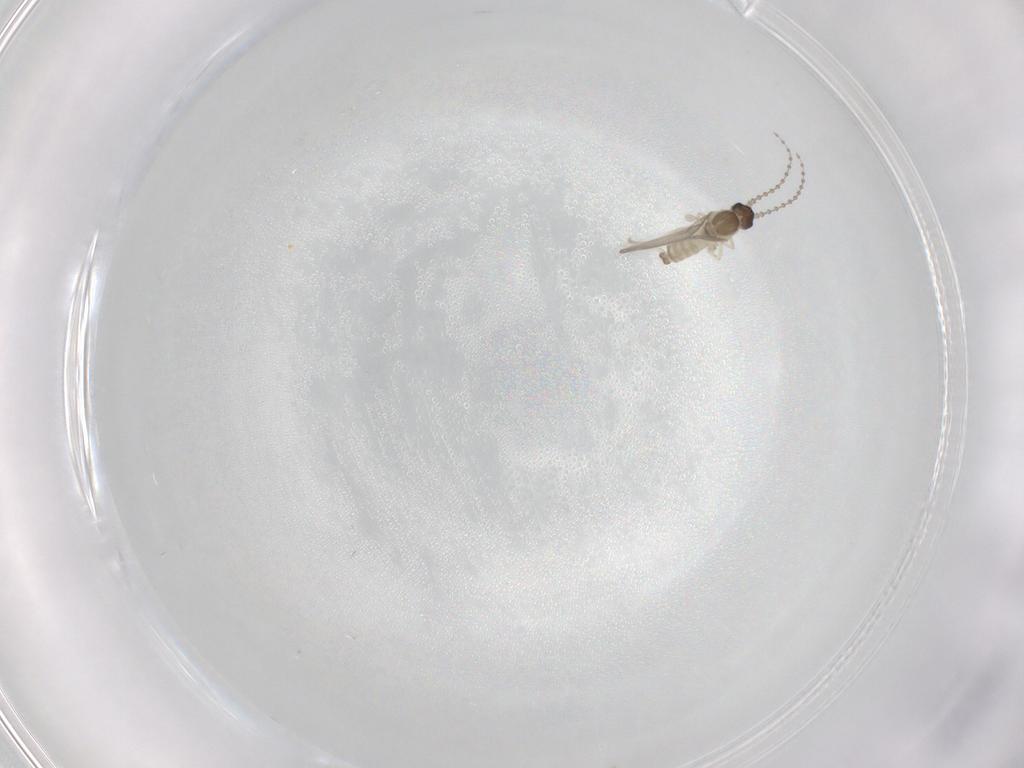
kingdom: Animalia
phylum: Arthropoda
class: Insecta
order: Diptera
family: Cecidomyiidae
